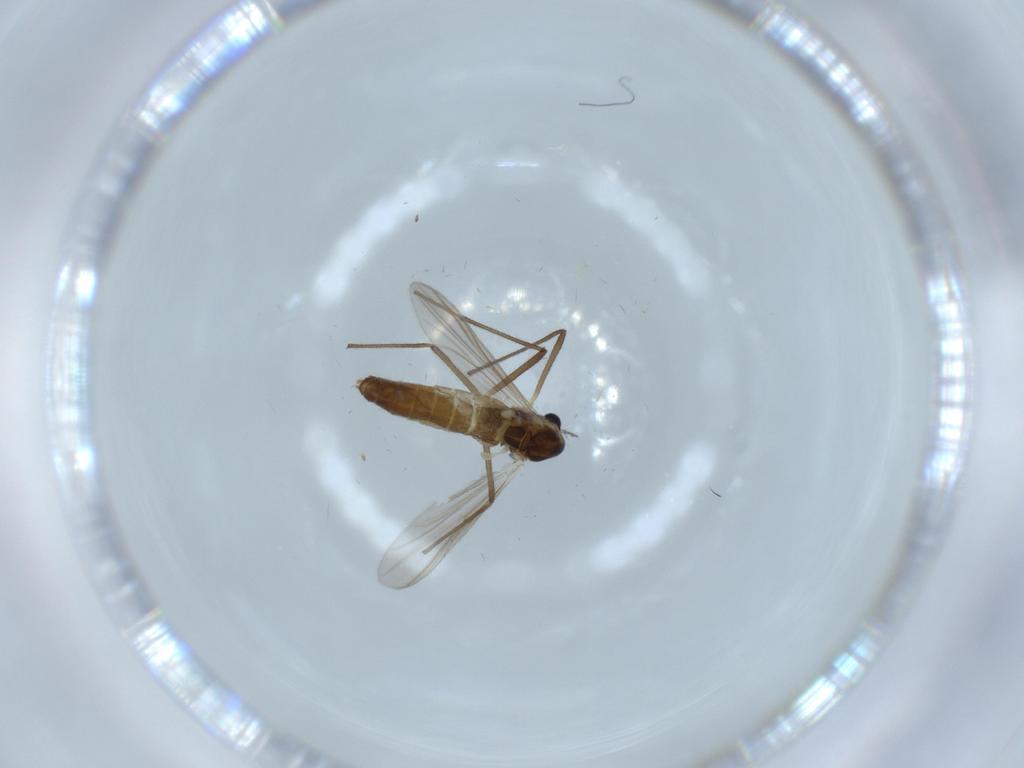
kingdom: Animalia
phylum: Arthropoda
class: Insecta
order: Diptera
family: Chironomidae
